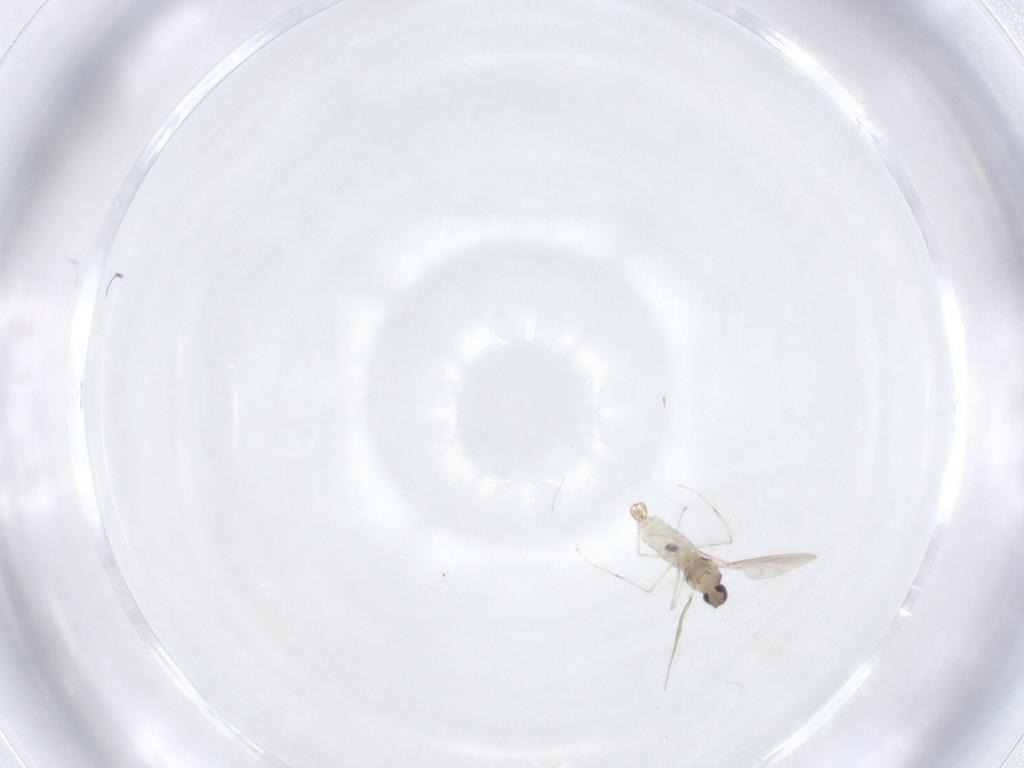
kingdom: Animalia
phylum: Arthropoda
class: Insecta
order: Diptera
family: Cecidomyiidae
